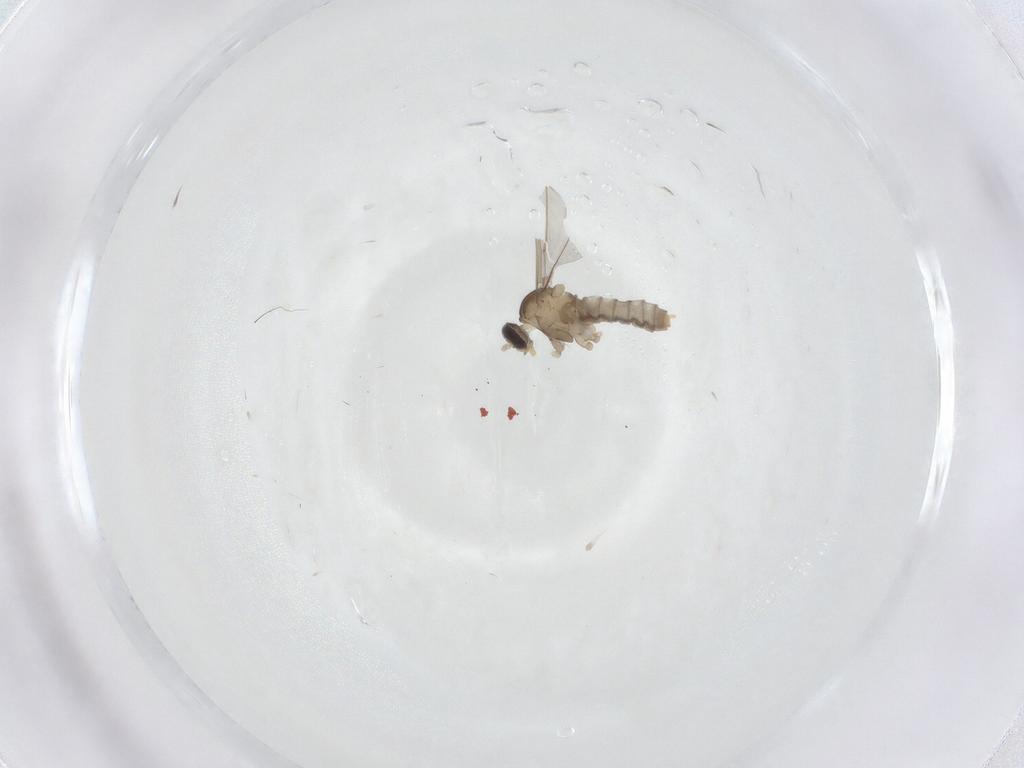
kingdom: Animalia
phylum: Arthropoda
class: Insecta
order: Diptera
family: Cecidomyiidae
